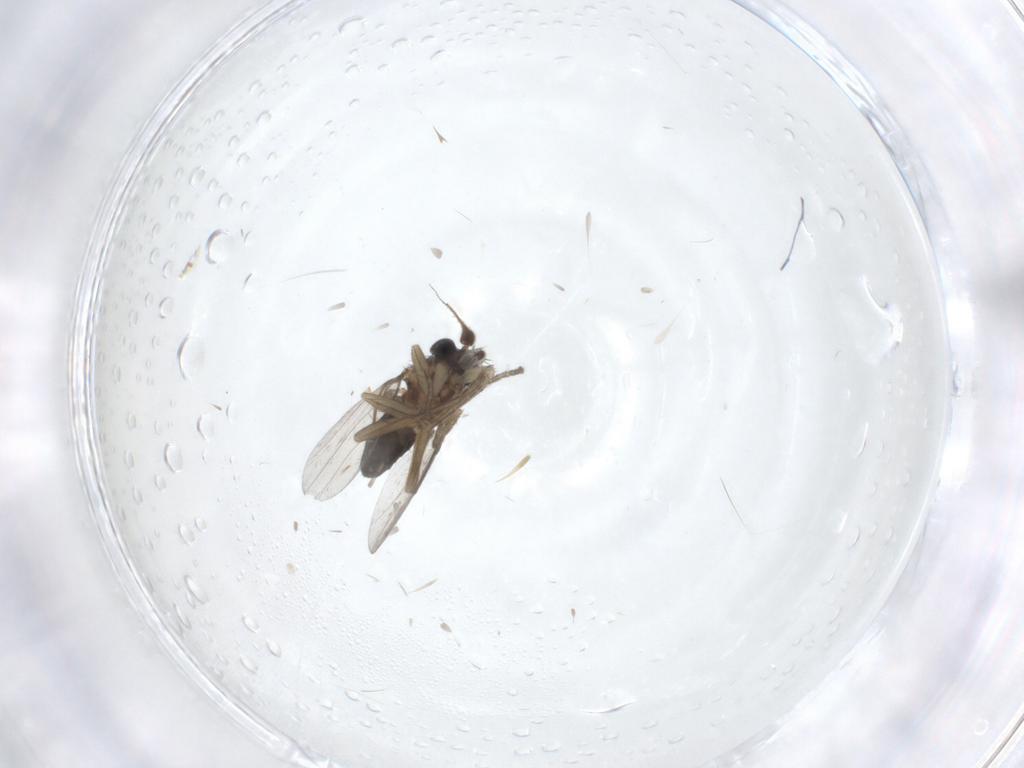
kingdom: Animalia
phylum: Arthropoda
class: Insecta
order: Diptera
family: Phoridae
